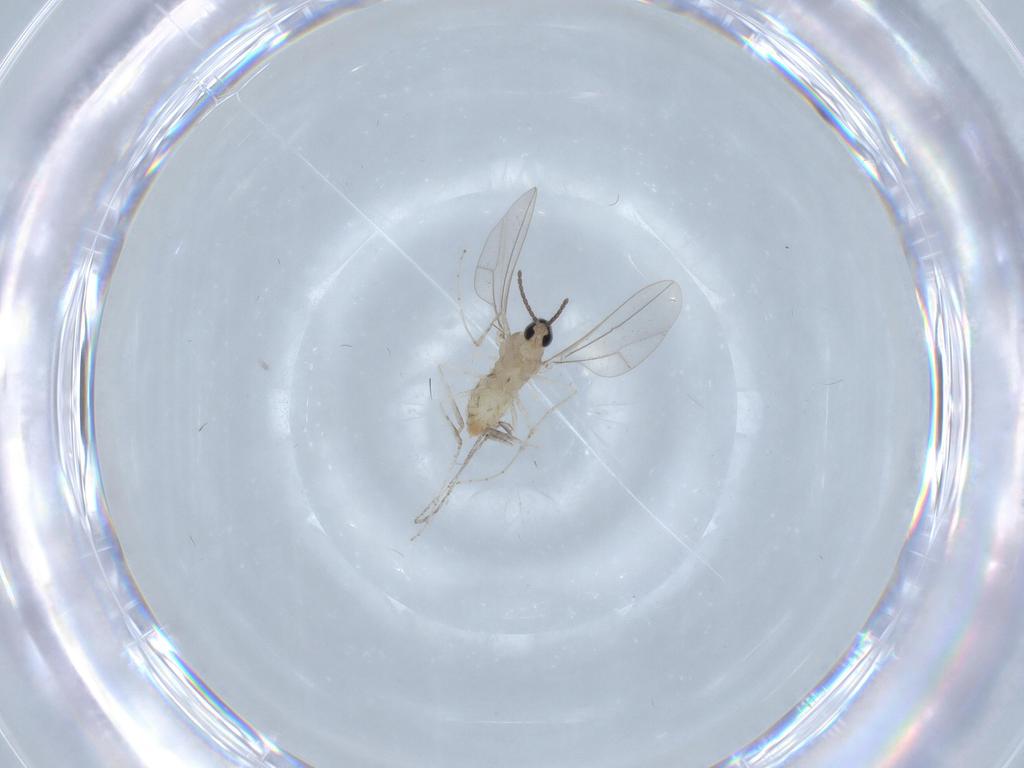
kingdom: Animalia
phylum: Arthropoda
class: Insecta
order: Diptera
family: Cecidomyiidae
